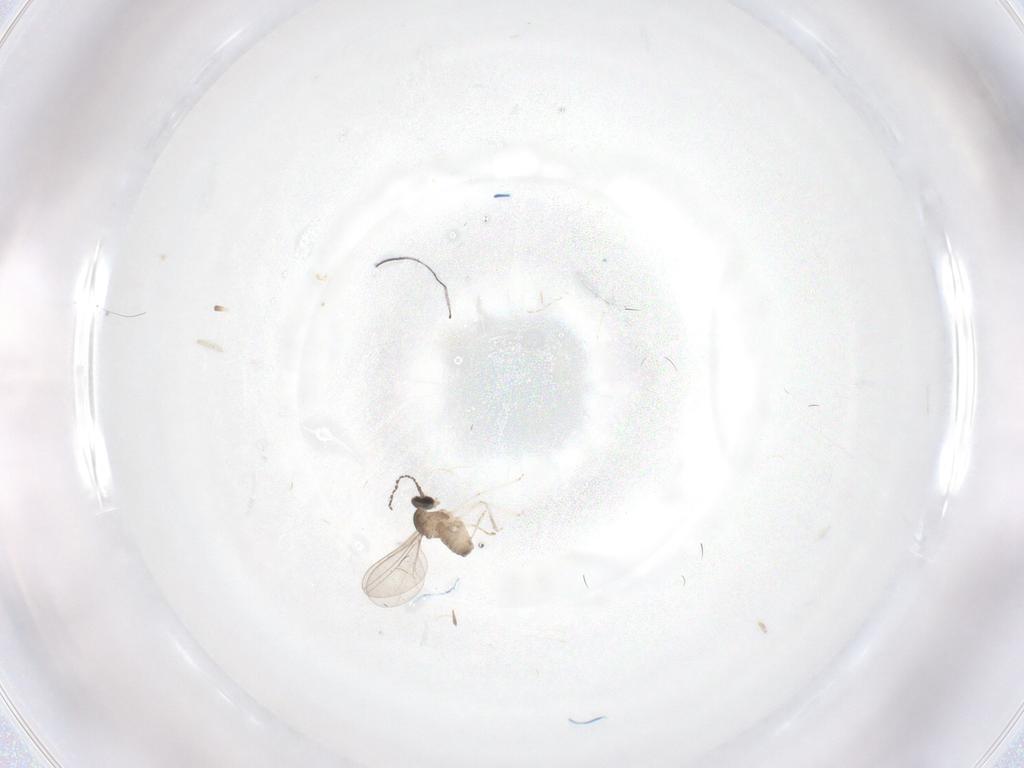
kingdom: Animalia
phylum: Arthropoda
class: Insecta
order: Diptera
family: Cecidomyiidae
